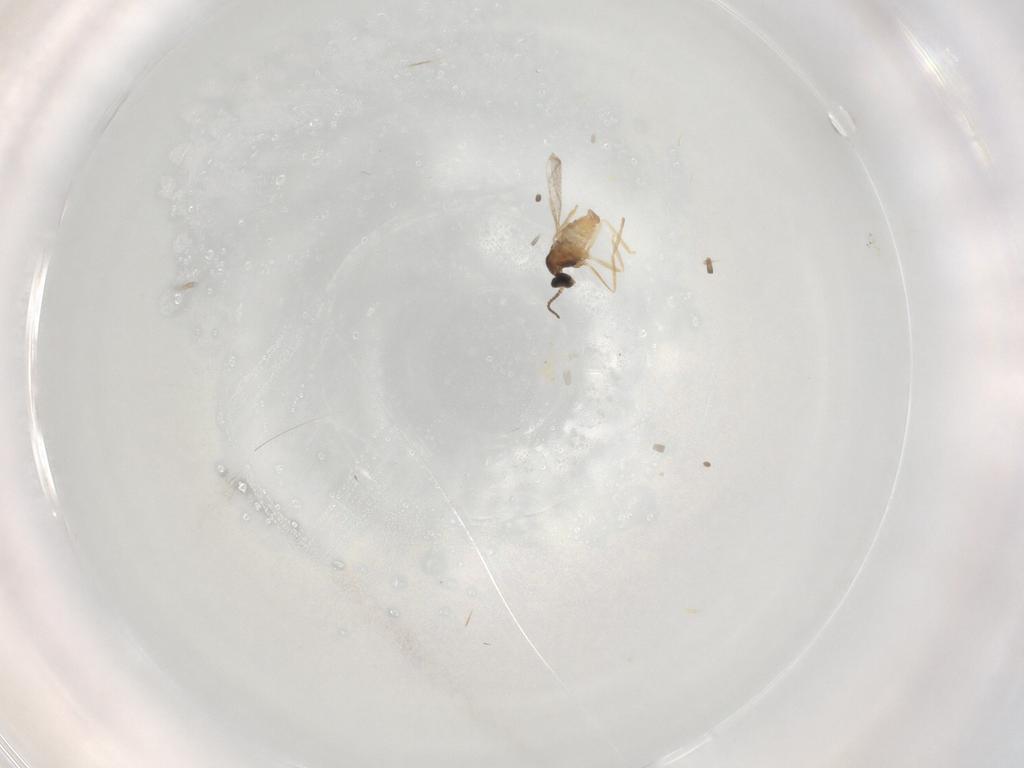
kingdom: Animalia
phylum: Arthropoda
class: Insecta
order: Diptera
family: Cecidomyiidae
